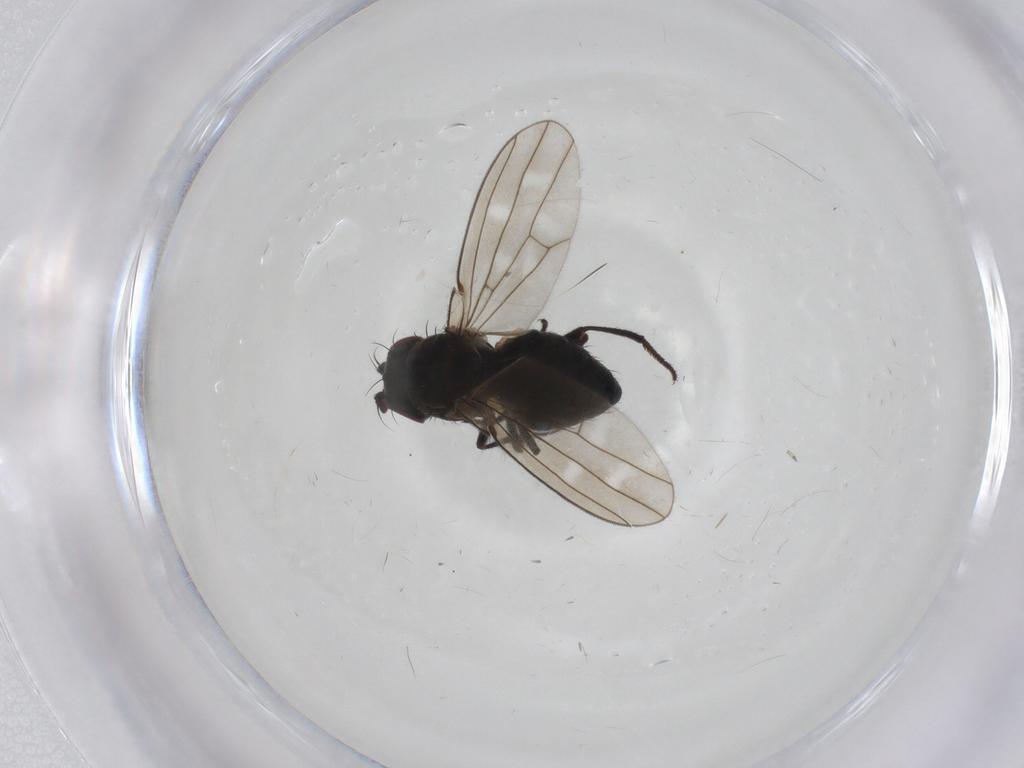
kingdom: Animalia
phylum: Arthropoda
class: Insecta
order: Diptera
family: Ephydridae
